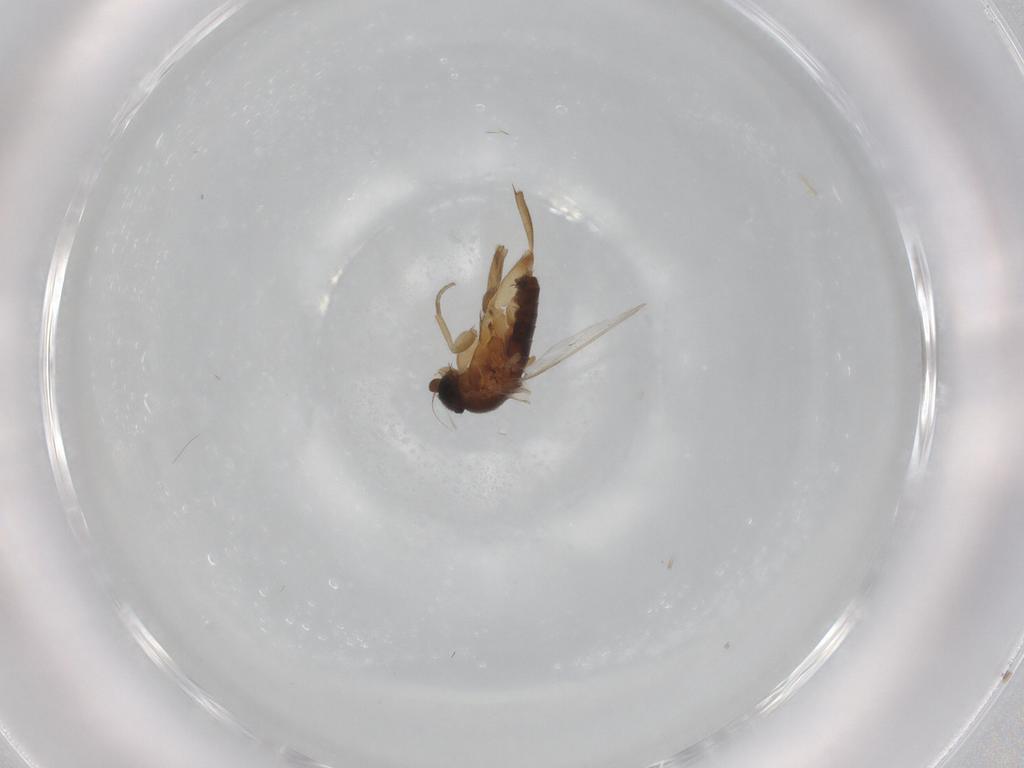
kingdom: Animalia
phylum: Arthropoda
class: Insecta
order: Diptera
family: Phoridae
